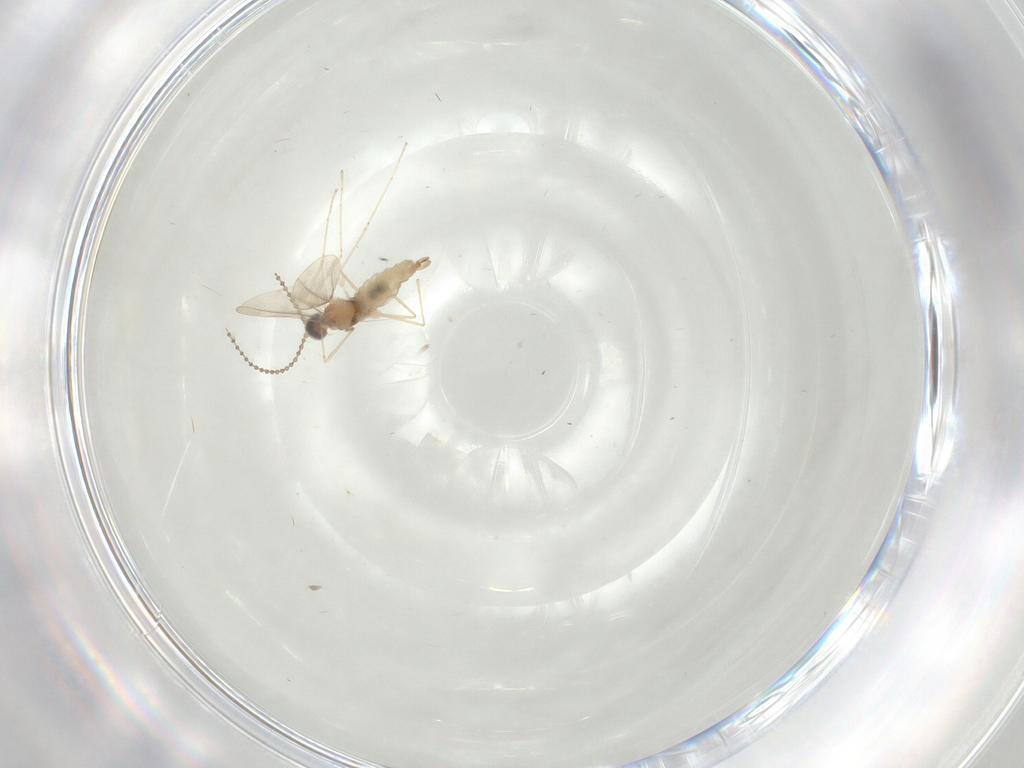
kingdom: Animalia
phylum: Arthropoda
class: Insecta
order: Diptera
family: Cecidomyiidae
